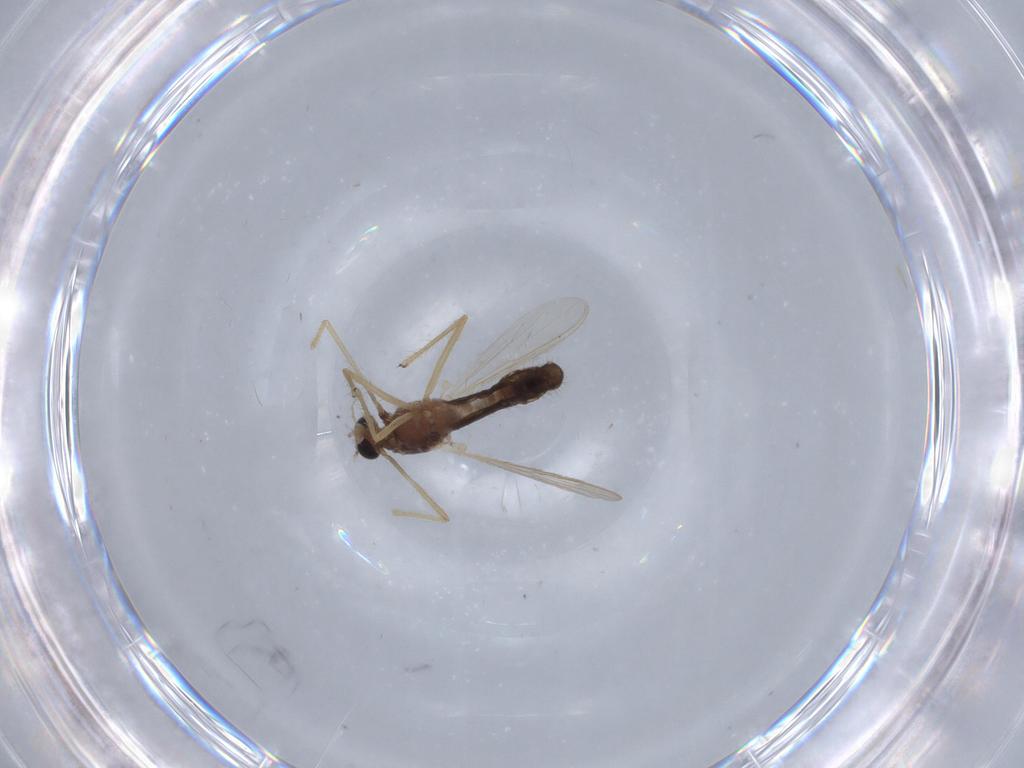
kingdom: Animalia
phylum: Arthropoda
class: Insecta
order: Diptera
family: Chironomidae
